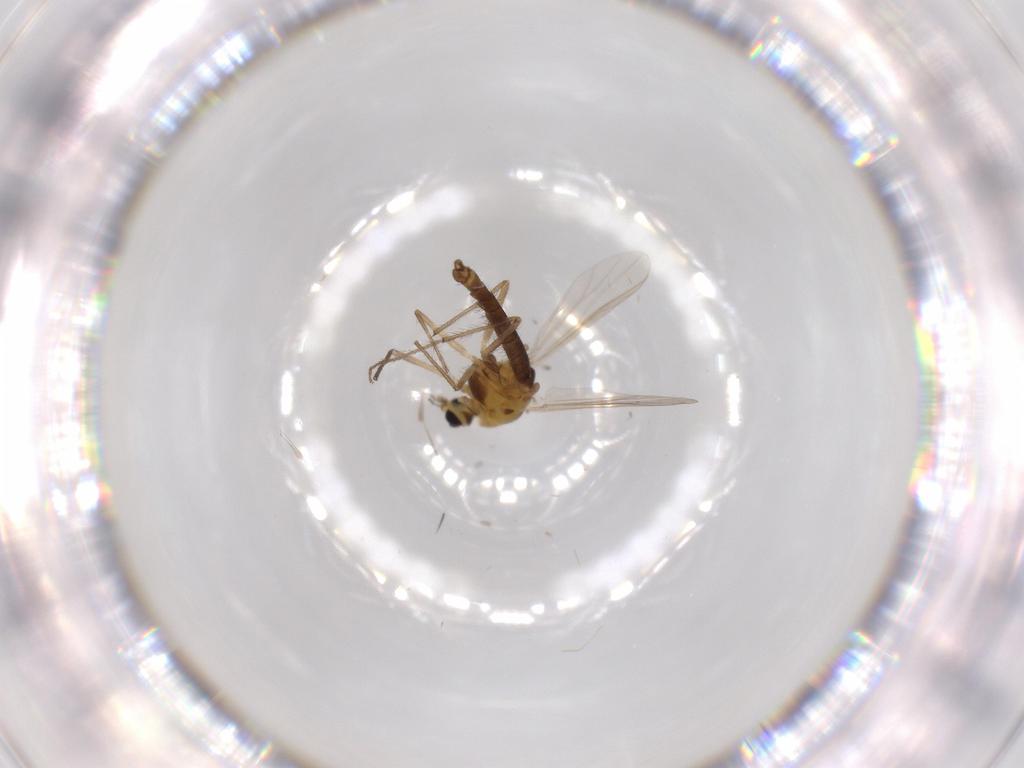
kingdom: Animalia
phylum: Arthropoda
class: Insecta
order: Diptera
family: Chironomidae
